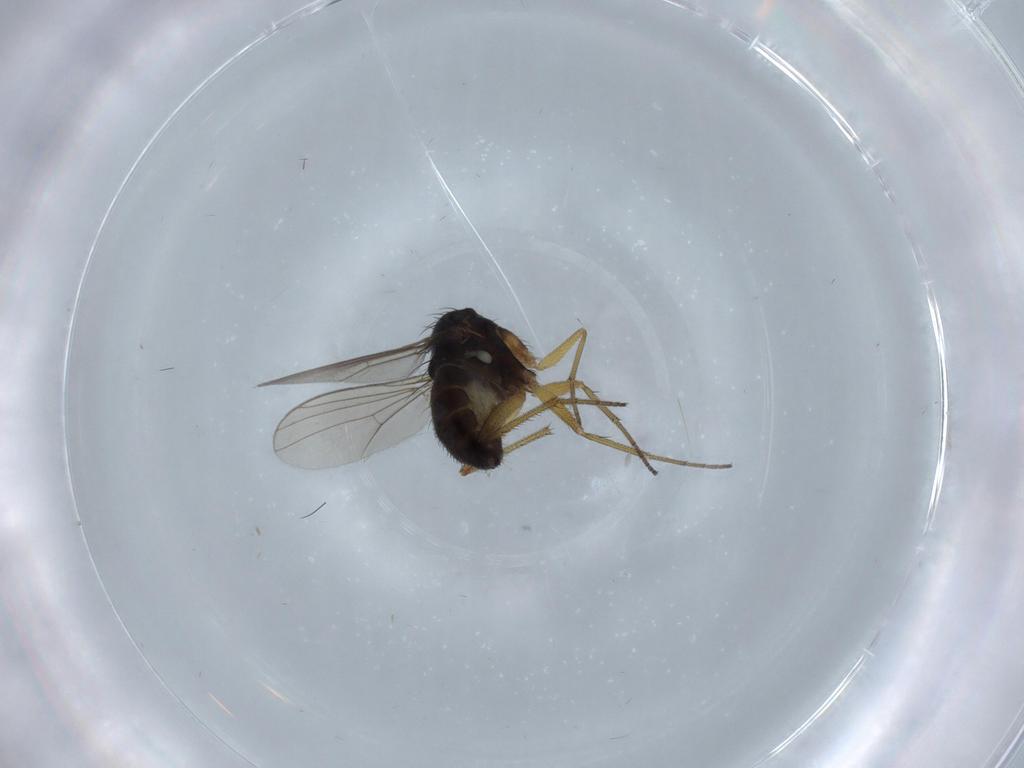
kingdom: Animalia
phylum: Arthropoda
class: Insecta
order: Diptera
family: Dolichopodidae
